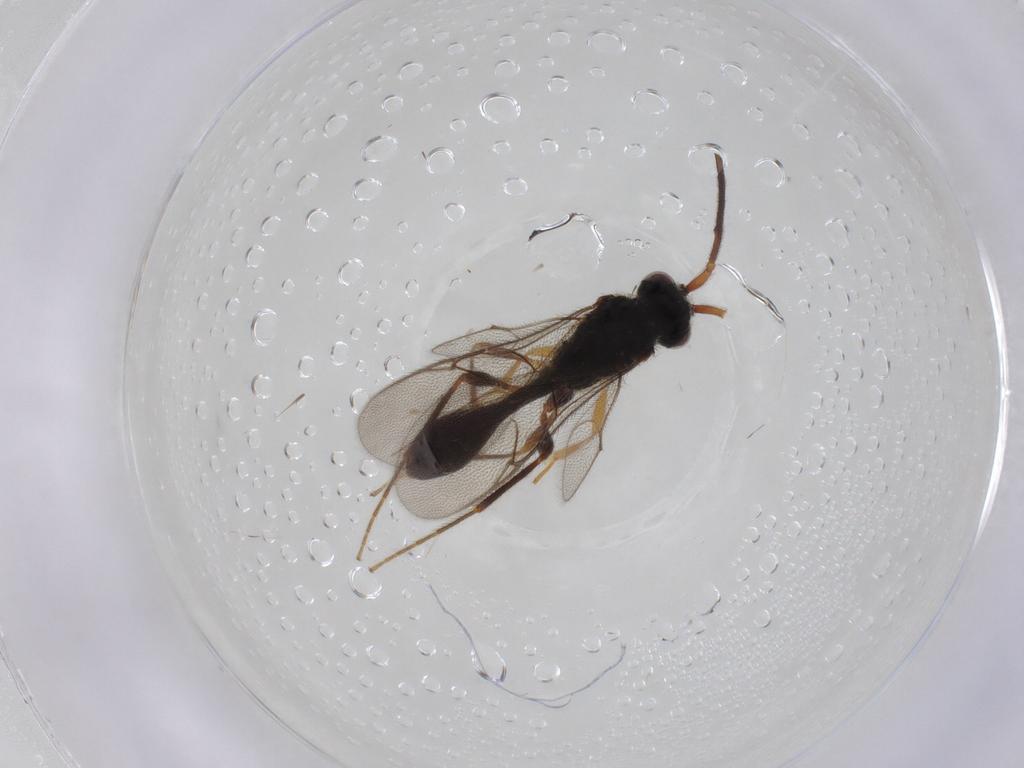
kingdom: Animalia
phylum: Arthropoda
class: Insecta
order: Hymenoptera
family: Diapriidae
